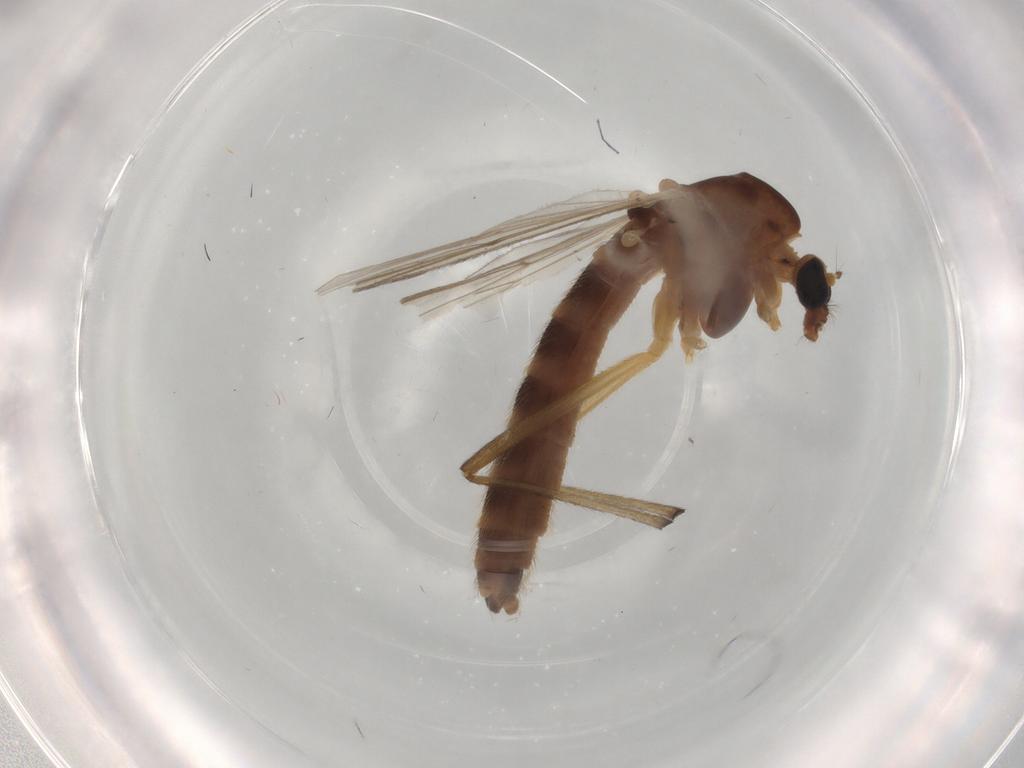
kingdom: Animalia
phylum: Arthropoda
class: Insecta
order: Diptera
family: Chironomidae
